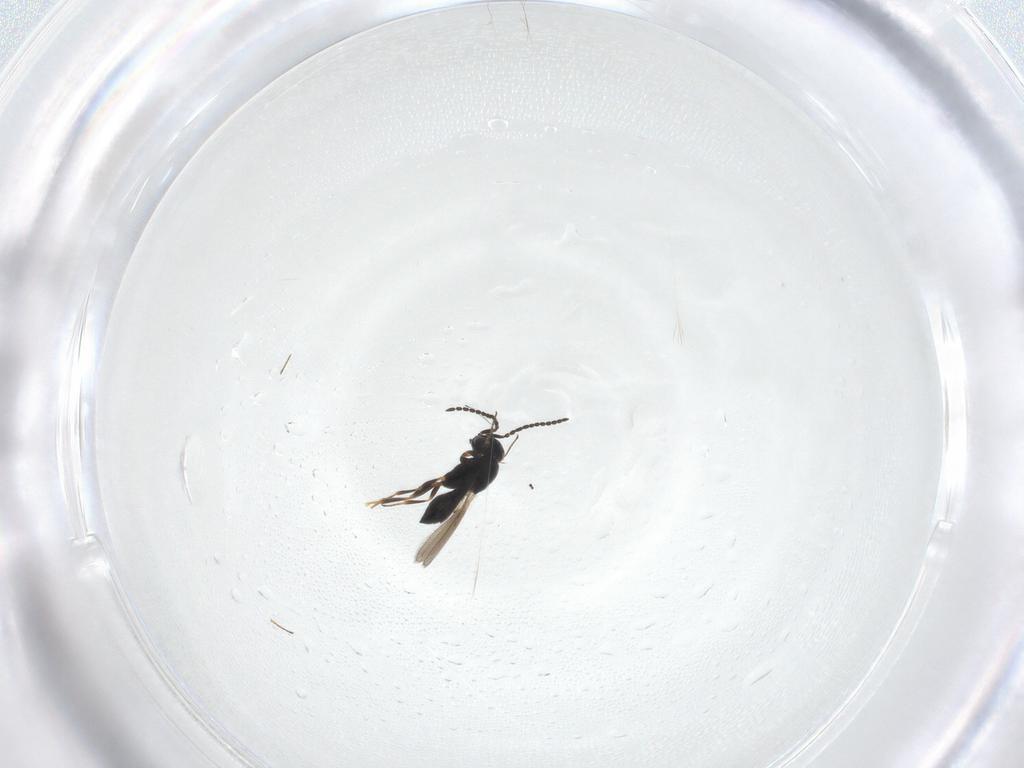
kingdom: Animalia
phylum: Arthropoda
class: Insecta
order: Hymenoptera
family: Scelionidae
